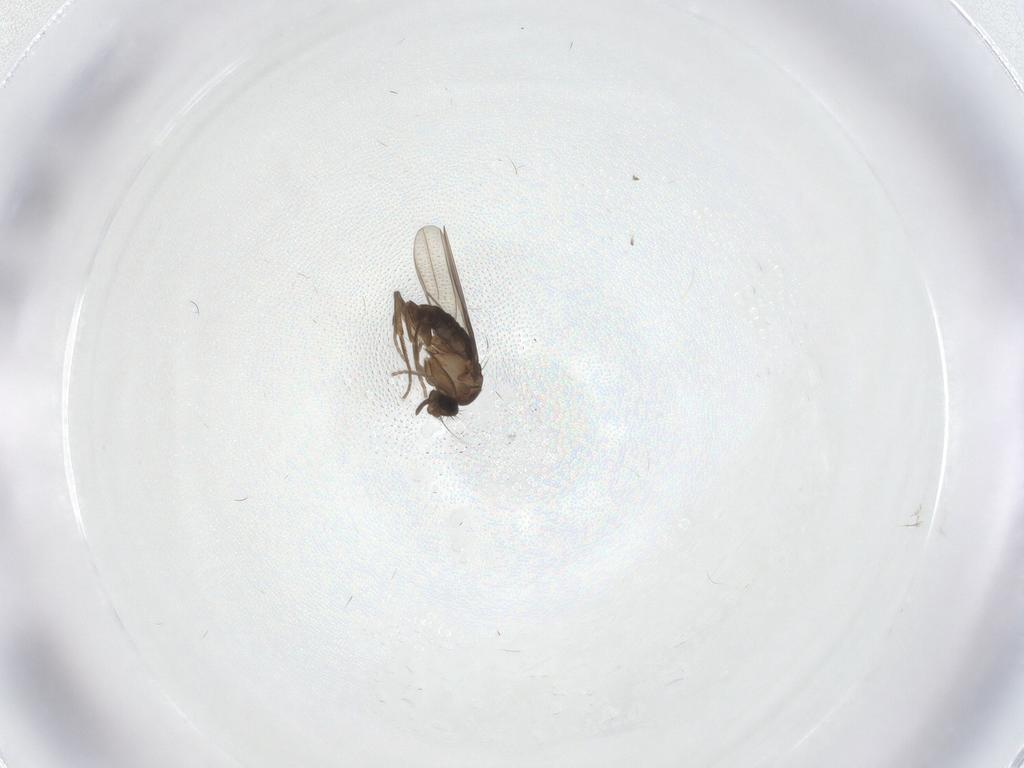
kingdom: Animalia
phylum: Arthropoda
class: Insecta
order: Diptera
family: Phoridae
